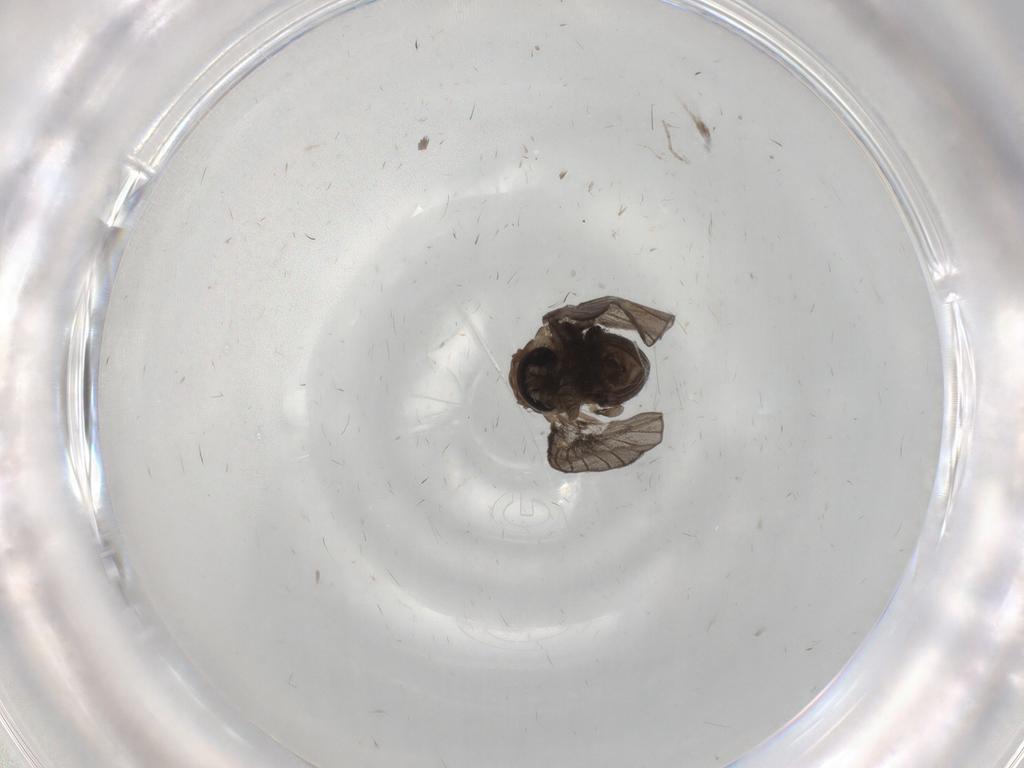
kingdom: Animalia
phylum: Arthropoda
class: Insecta
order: Diptera
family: Psychodidae
